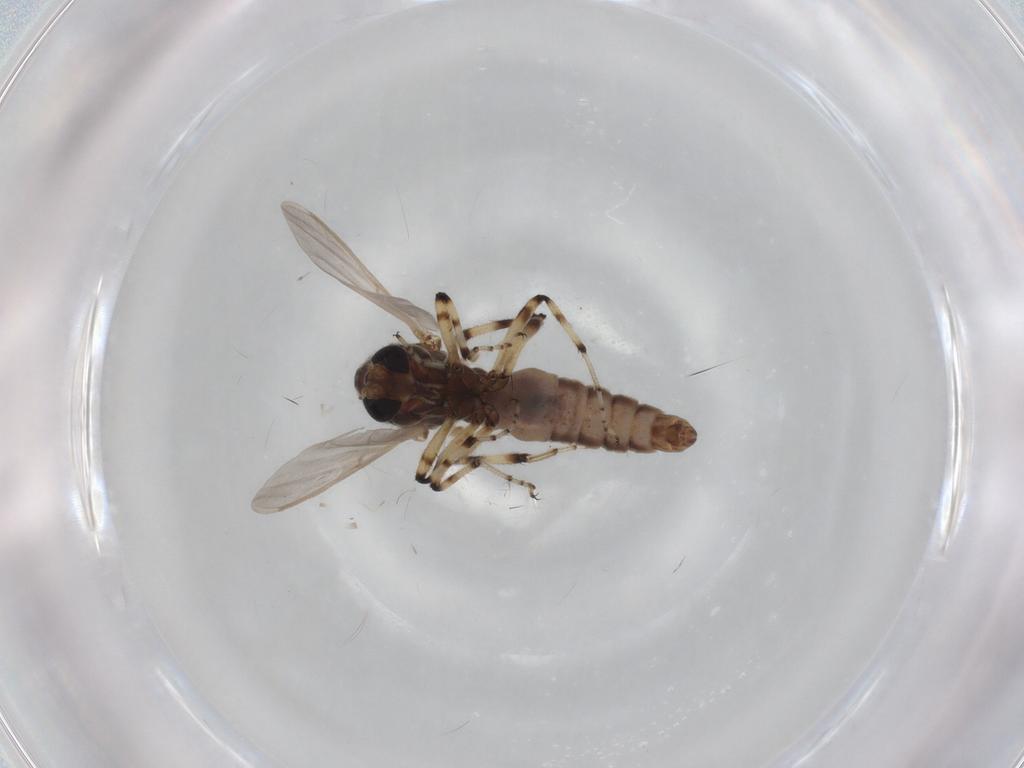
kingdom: Animalia
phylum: Arthropoda
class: Insecta
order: Diptera
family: Ceratopogonidae
